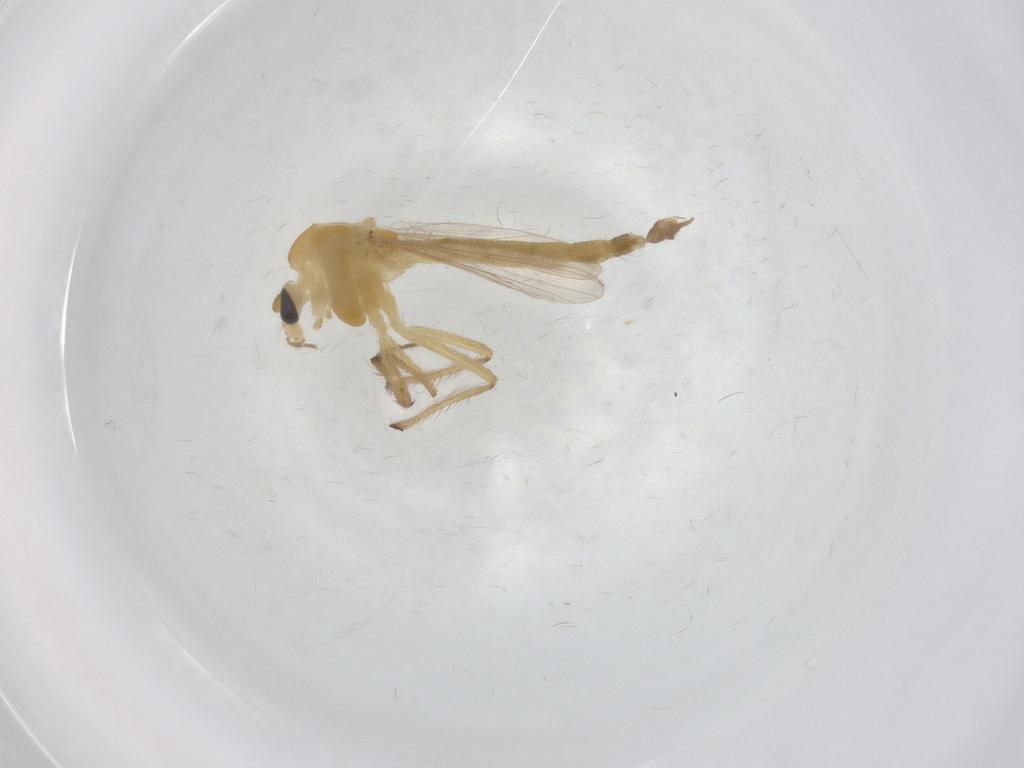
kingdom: Animalia
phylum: Arthropoda
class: Insecta
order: Diptera
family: Chironomidae
